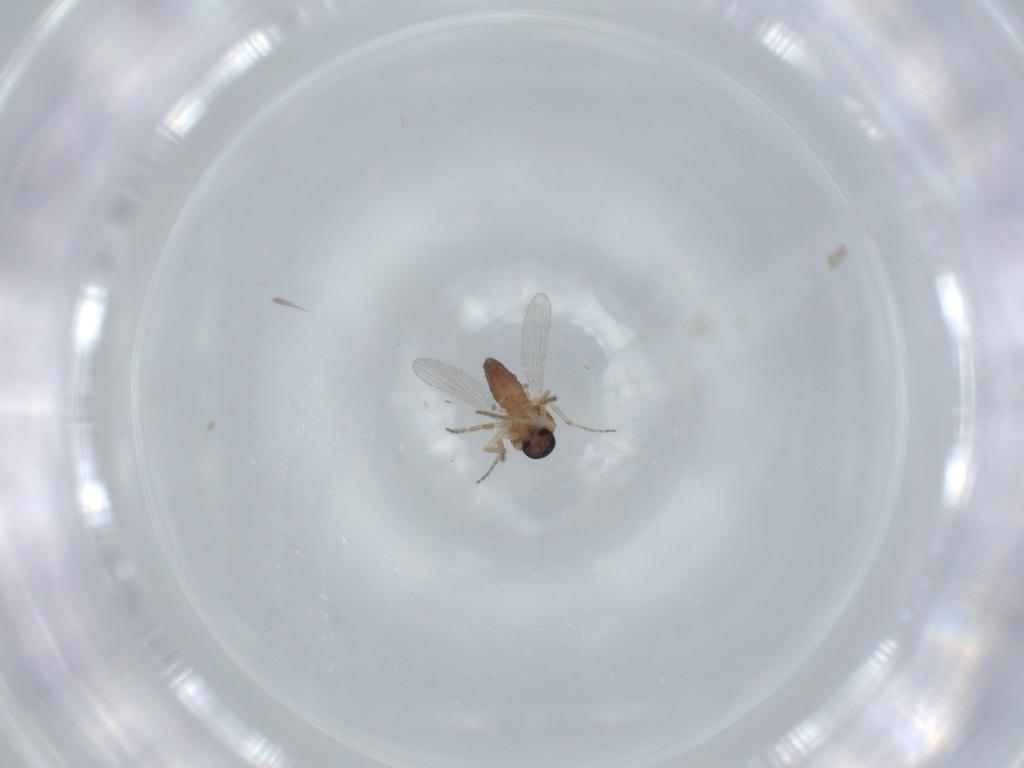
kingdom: Animalia
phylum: Arthropoda
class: Insecta
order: Diptera
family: Ceratopogonidae
